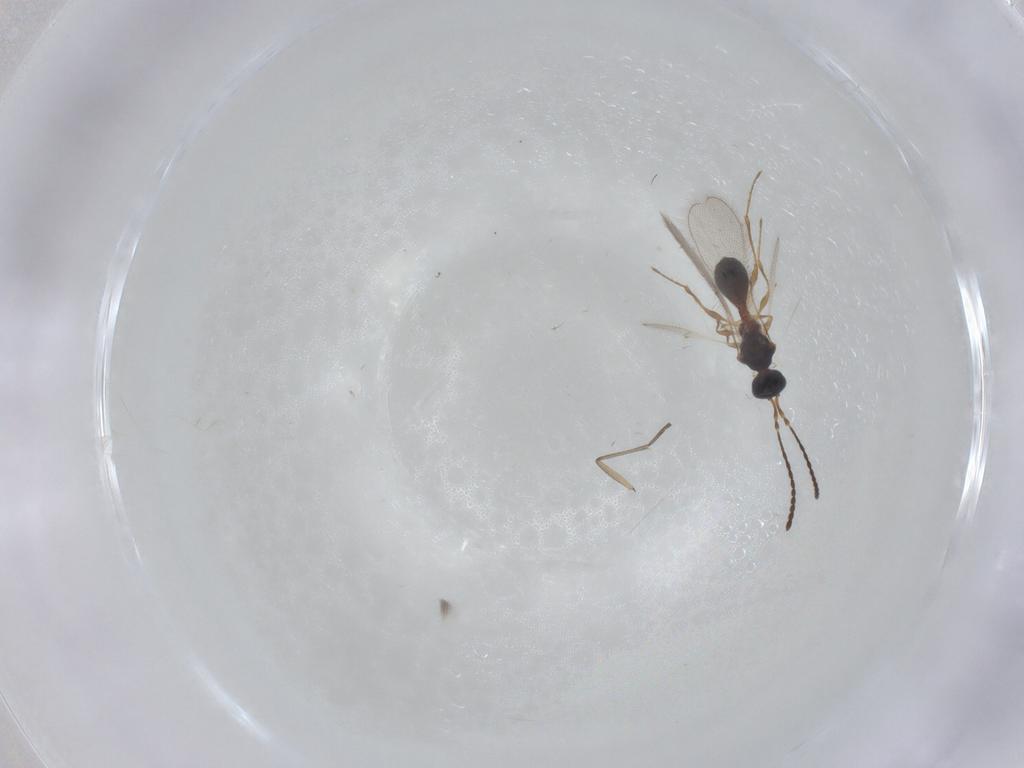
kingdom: Animalia
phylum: Arthropoda
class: Insecta
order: Hymenoptera
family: Diapriidae
